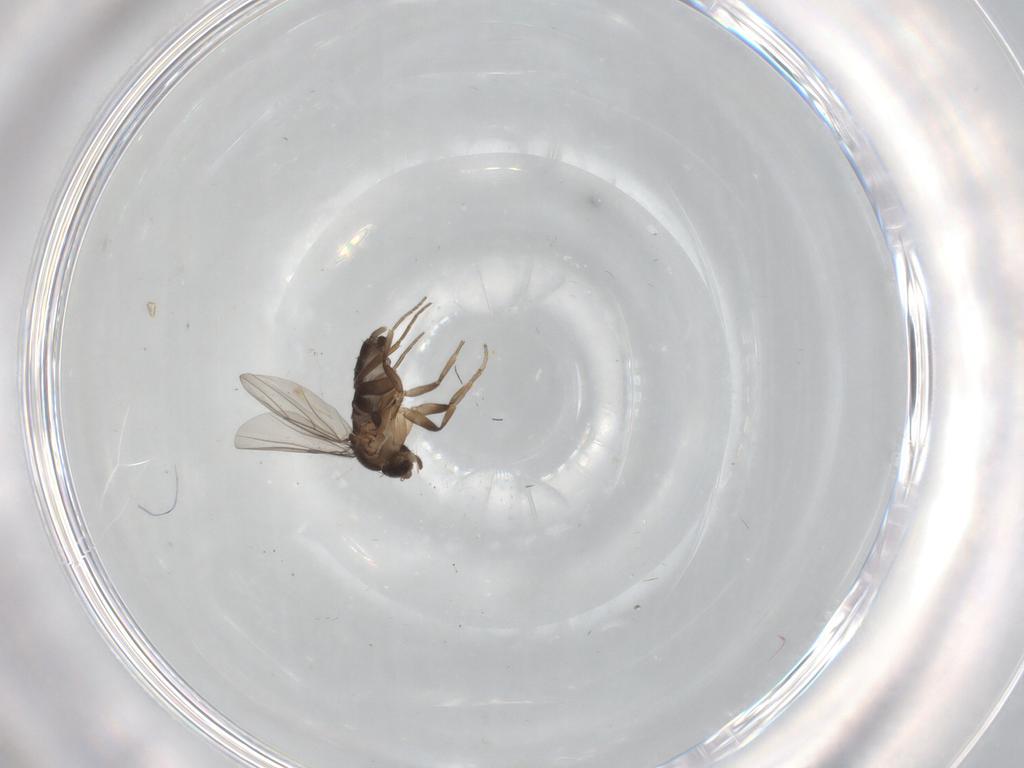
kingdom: Animalia
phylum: Arthropoda
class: Insecta
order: Diptera
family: Phoridae
